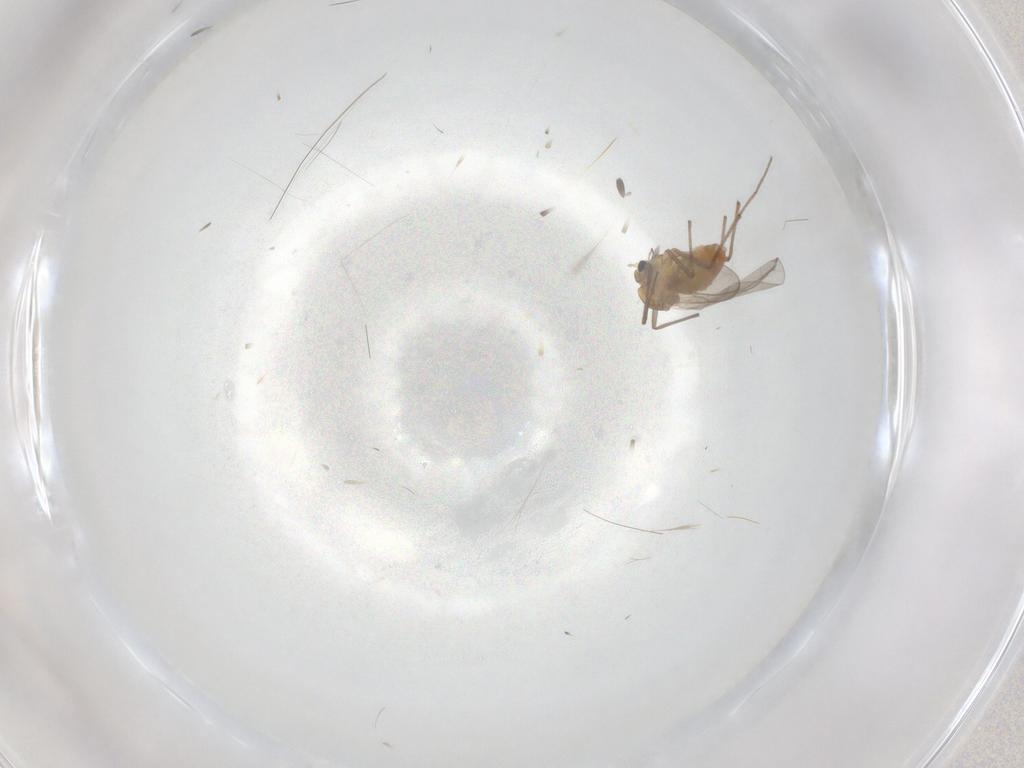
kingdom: Animalia
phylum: Arthropoda
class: Insecta
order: Diptera
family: Chironomidae
